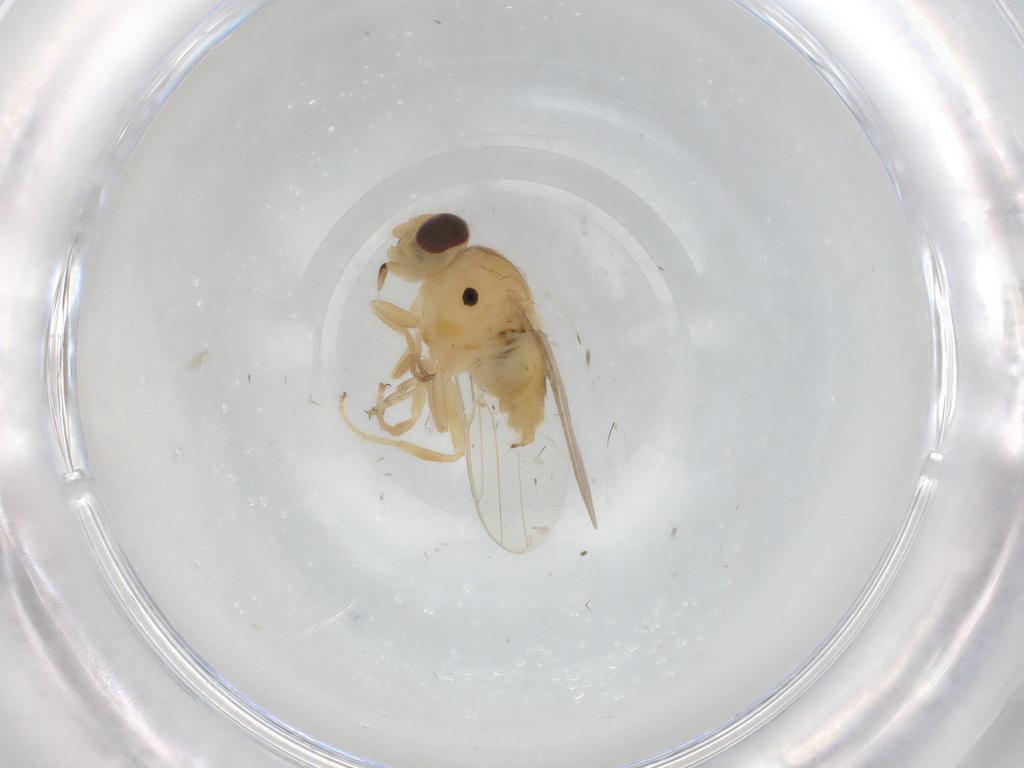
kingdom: Animalia
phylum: Arthropoda
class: Insecta
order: Diptera
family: Chloropidae
